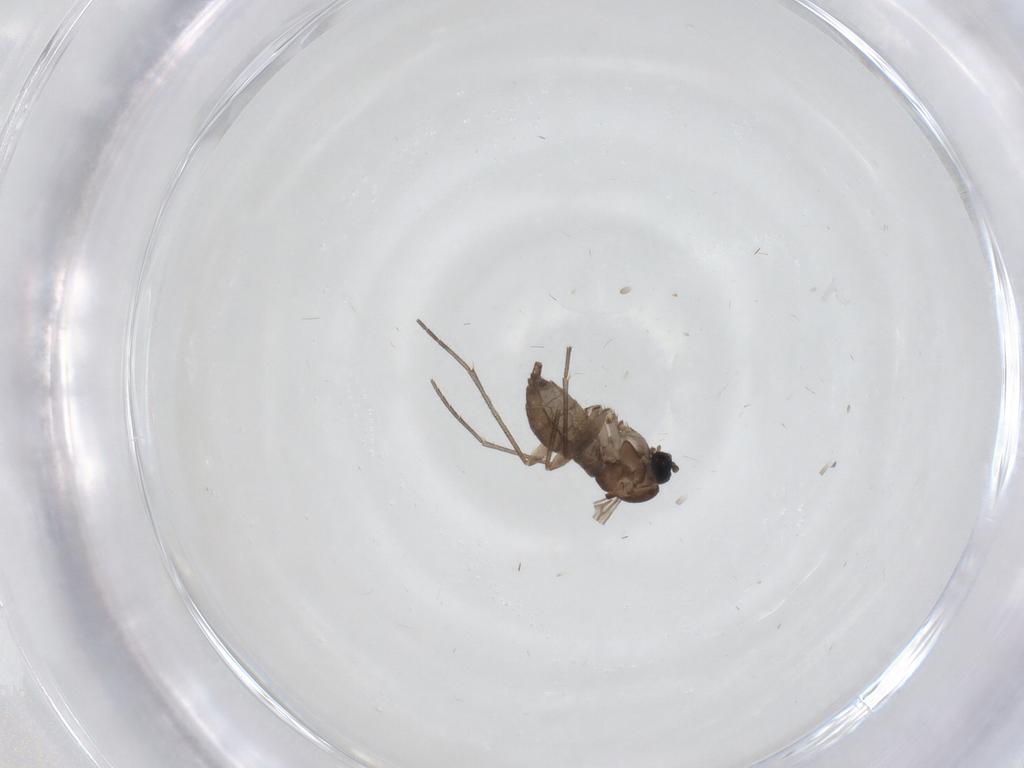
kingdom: Animalia
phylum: Arthropoda
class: Insecta
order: Diptera
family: Sciaridae
